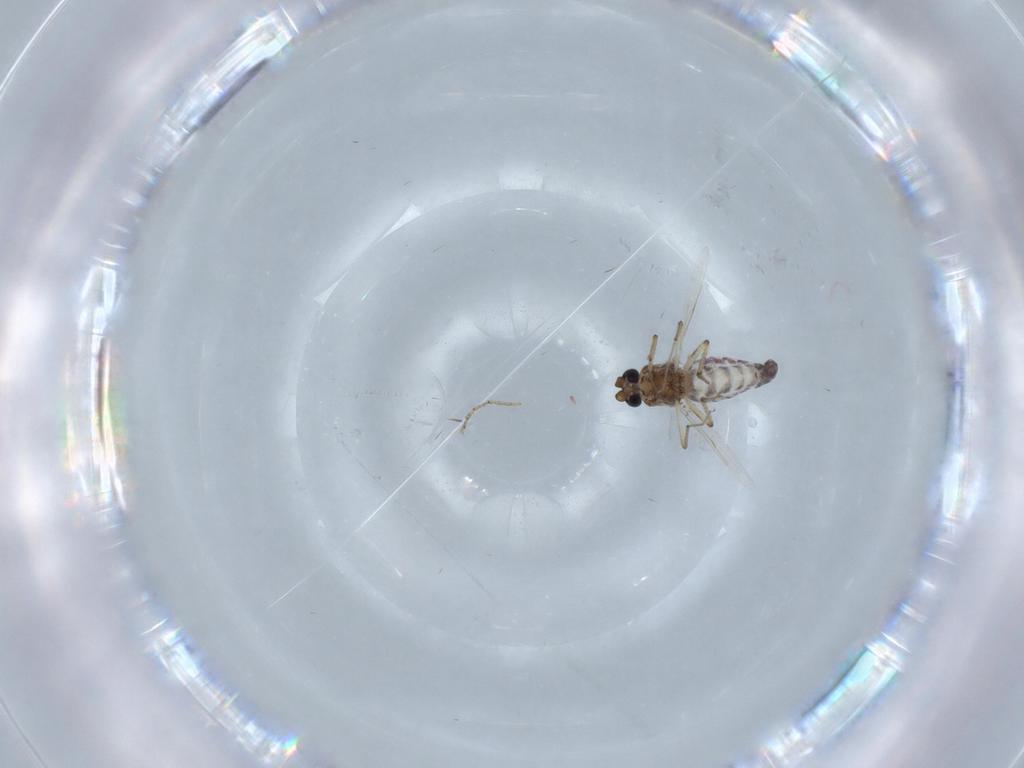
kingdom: Animalia
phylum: Arthropoda
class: Insecta
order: Diptera
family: Ceratopogonidae
